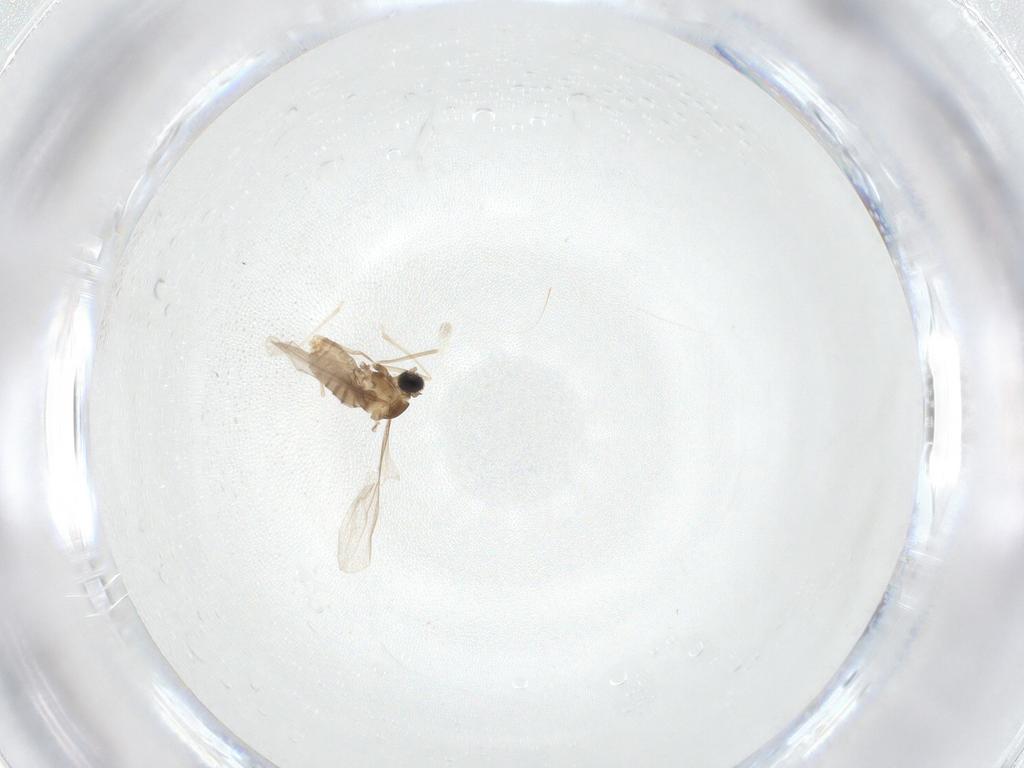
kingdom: Animalia
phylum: Arthropoda
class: Insecta
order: Diptera
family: Cecidomyiidae
